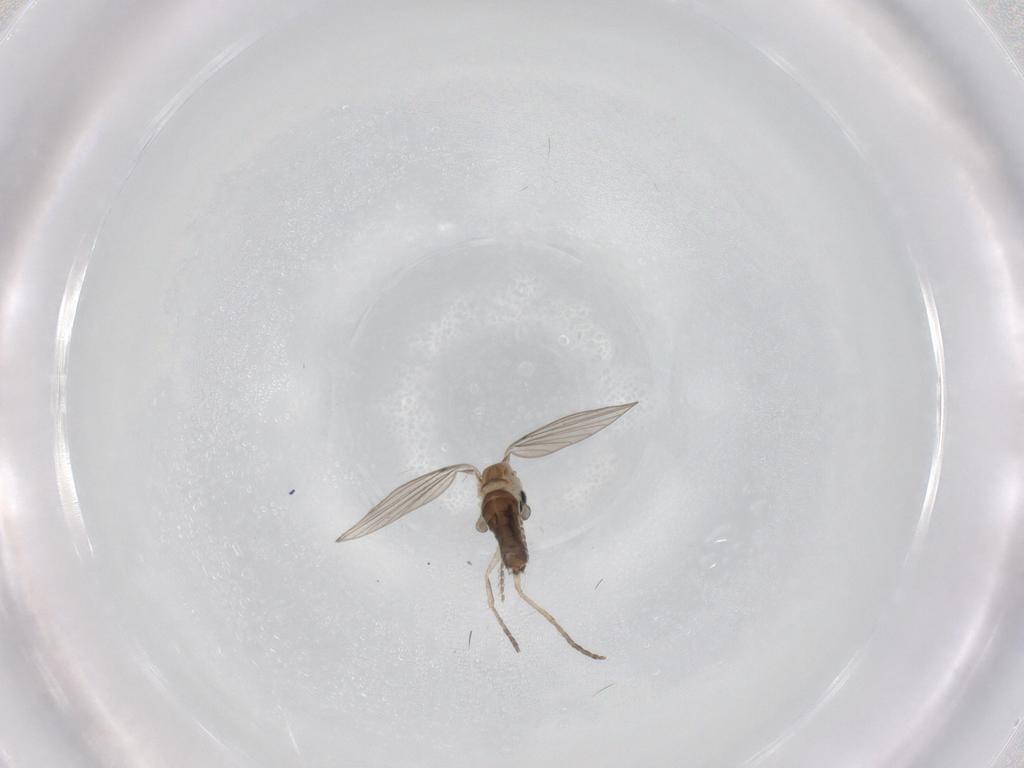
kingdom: Animalia
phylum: Arthropoda
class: Insecta
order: Diptera
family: Psychodidae
